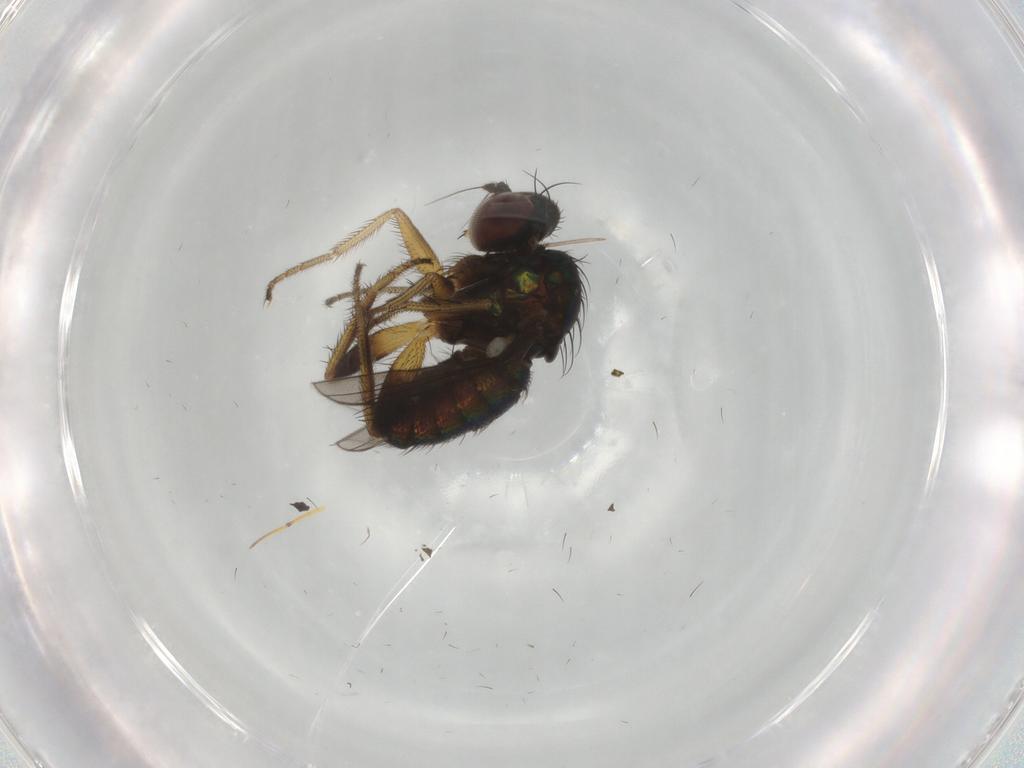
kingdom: Animalia
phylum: Arthropoda
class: Insecta
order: Diptera
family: Dolichopodidae
